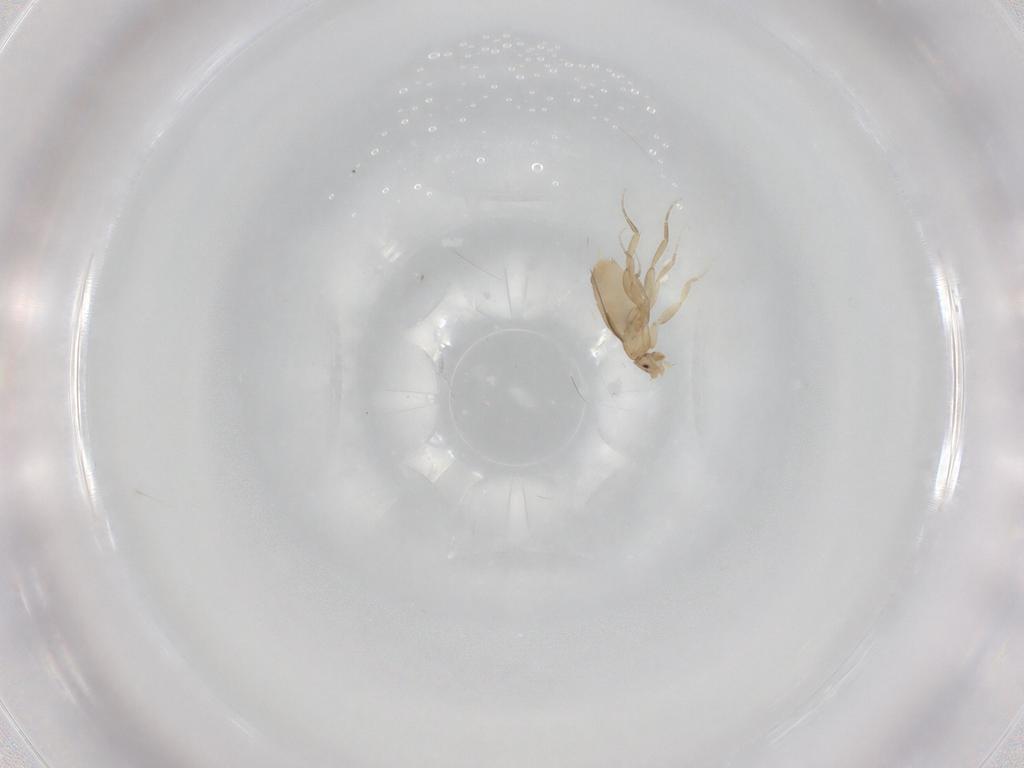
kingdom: Animalia
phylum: Arthropoda
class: Insecta
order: Diptera
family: Phoridae
